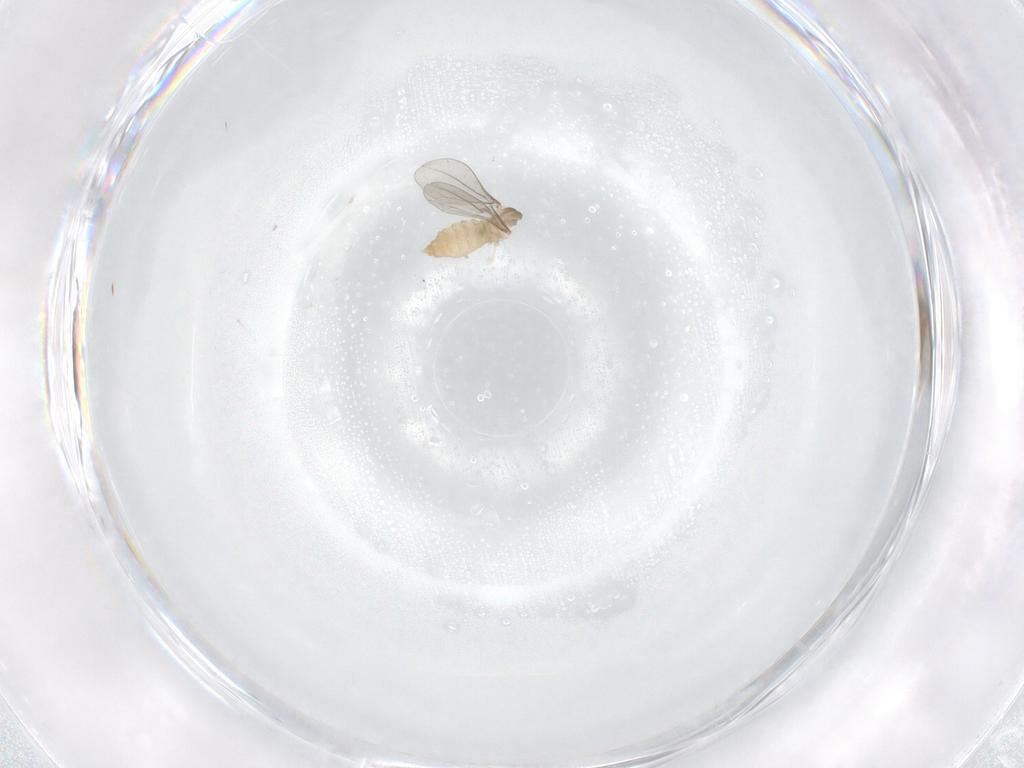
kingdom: Animalia
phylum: Arthropoda
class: Insecta
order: Diptera
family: Cecidomyiidae
